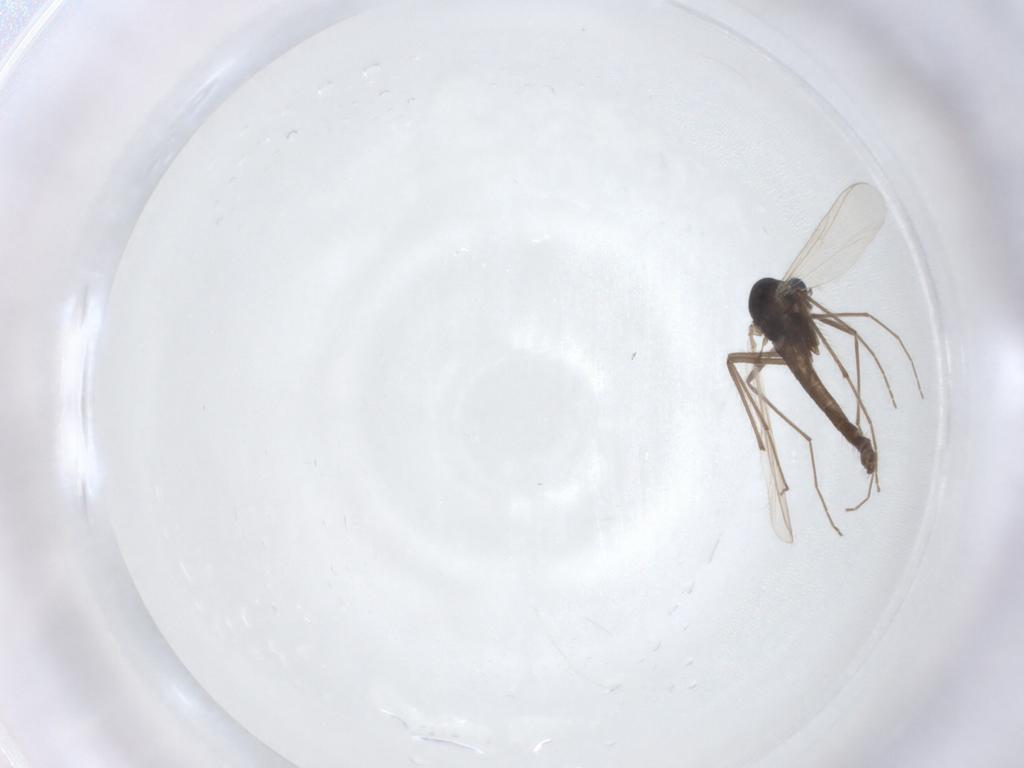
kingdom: Animalia
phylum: Arthropoda
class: Insecta
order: Diptera
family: Chironomidae
